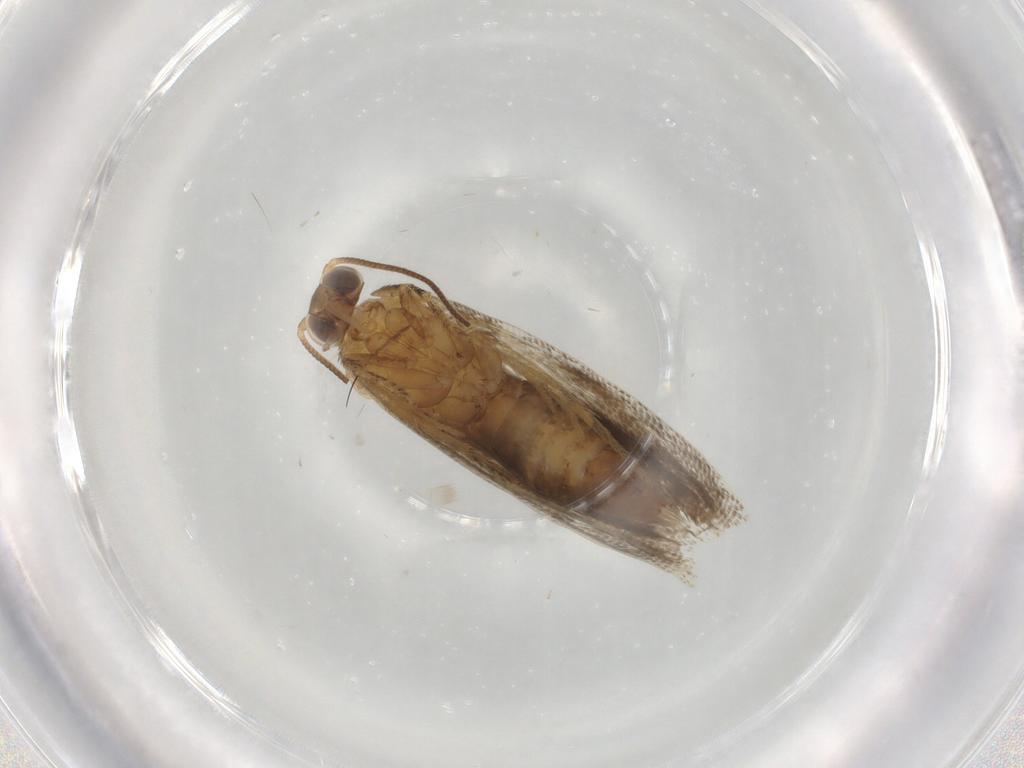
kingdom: Animalia
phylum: Arthropoda
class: Insecta
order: Lepidoptera
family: Tortricidae
